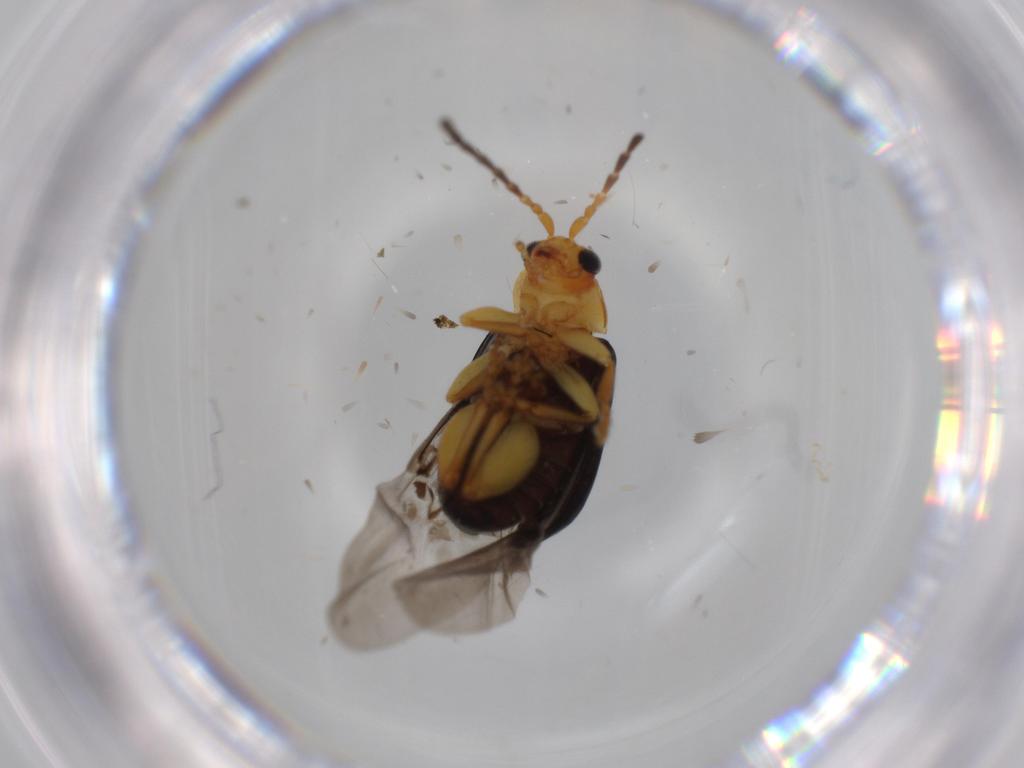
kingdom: Animalia
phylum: Arthropoda
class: Insecta
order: Coleoptera
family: Chrysomelidae
